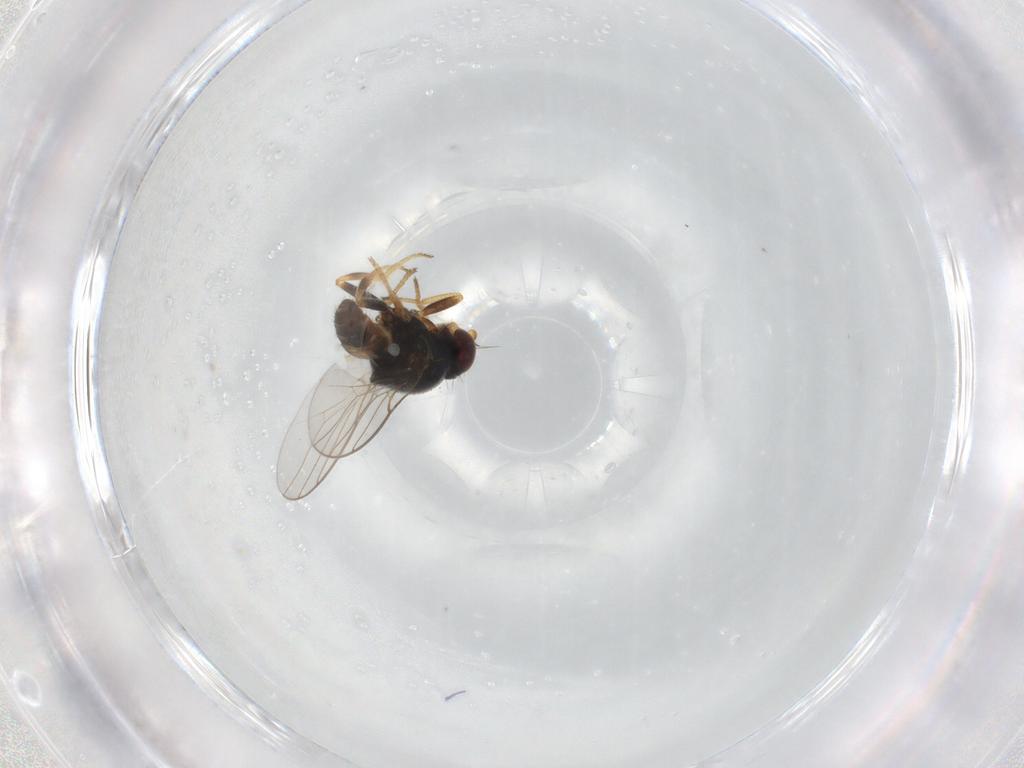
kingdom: Animalia
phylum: Arthropoda
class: Insecta
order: Diptera
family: Chloropidae
